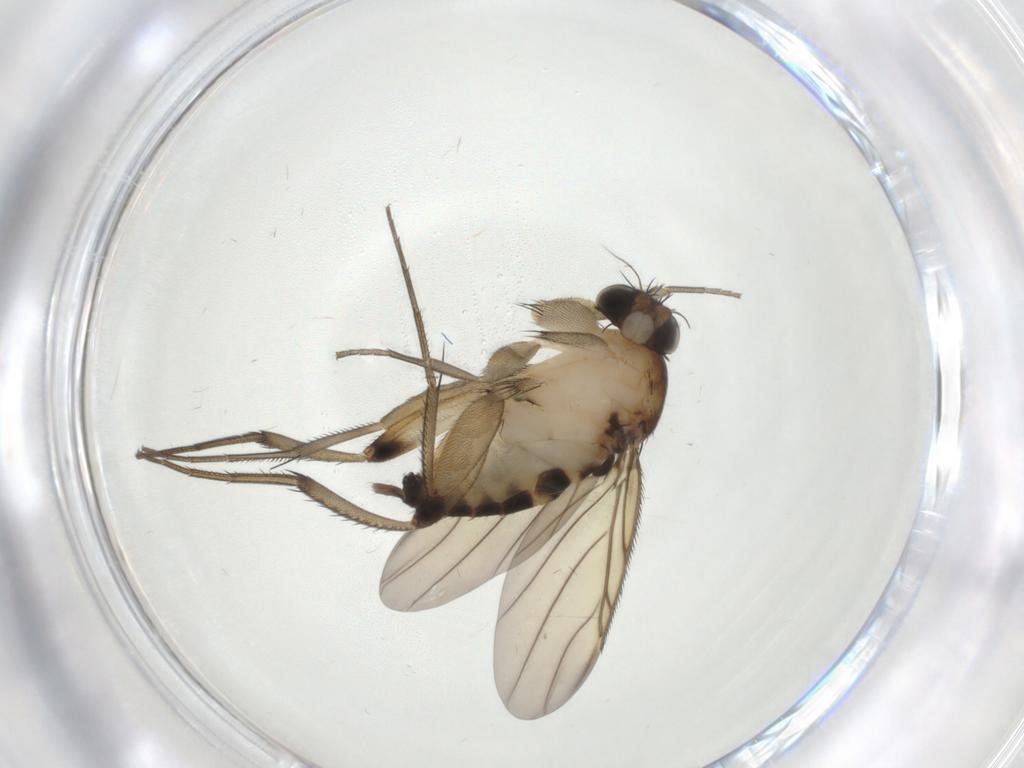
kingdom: Animalia
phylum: Arthropoda
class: Insecta
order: Diptera
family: Phoridae
